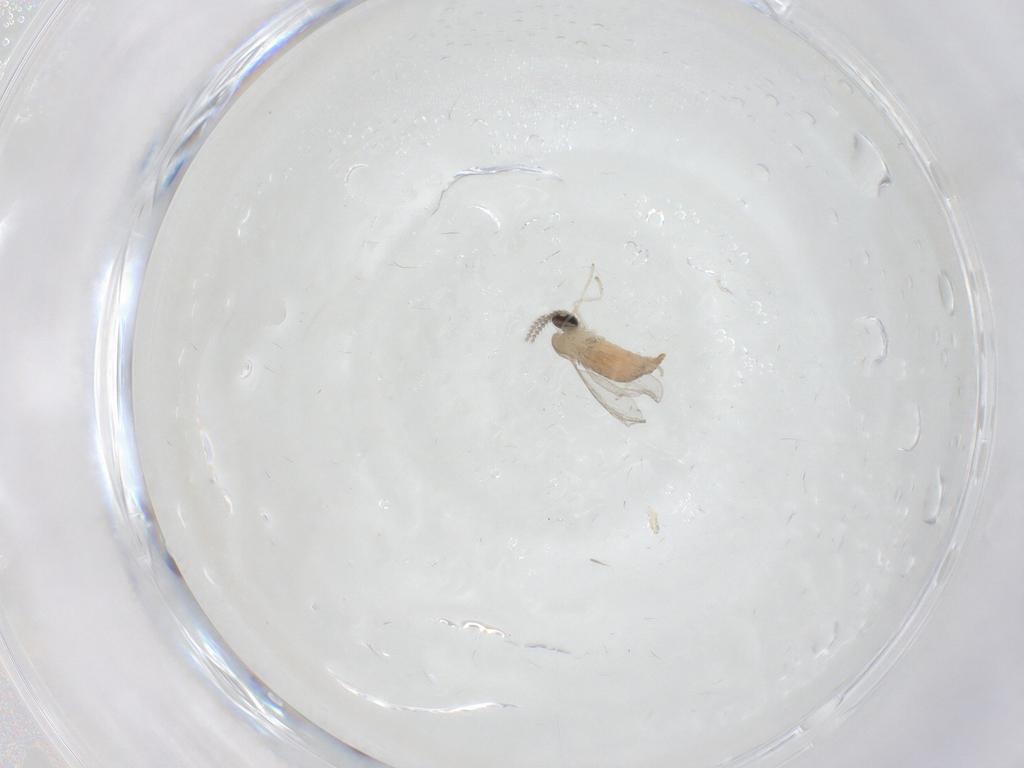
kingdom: Animalia
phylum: Arthropoda
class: Insecta
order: Diptera
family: Cecidomyiidae
